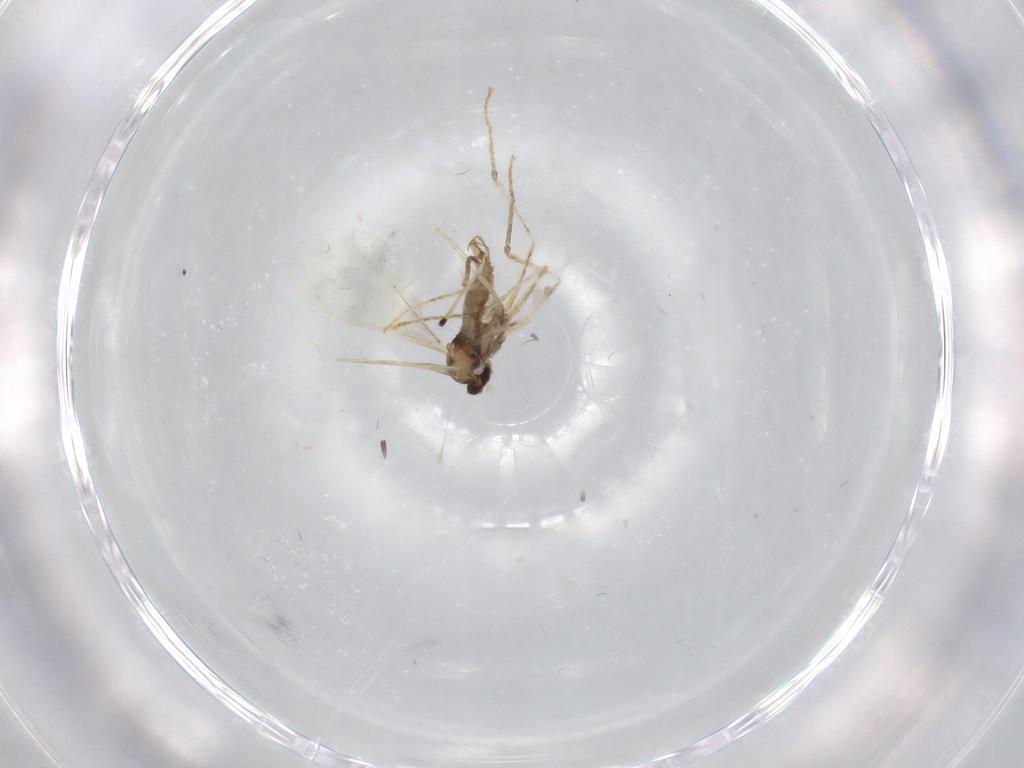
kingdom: Animalia
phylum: Arthropoda
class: Insecta
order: Diptera
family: Cecidomyiidae
